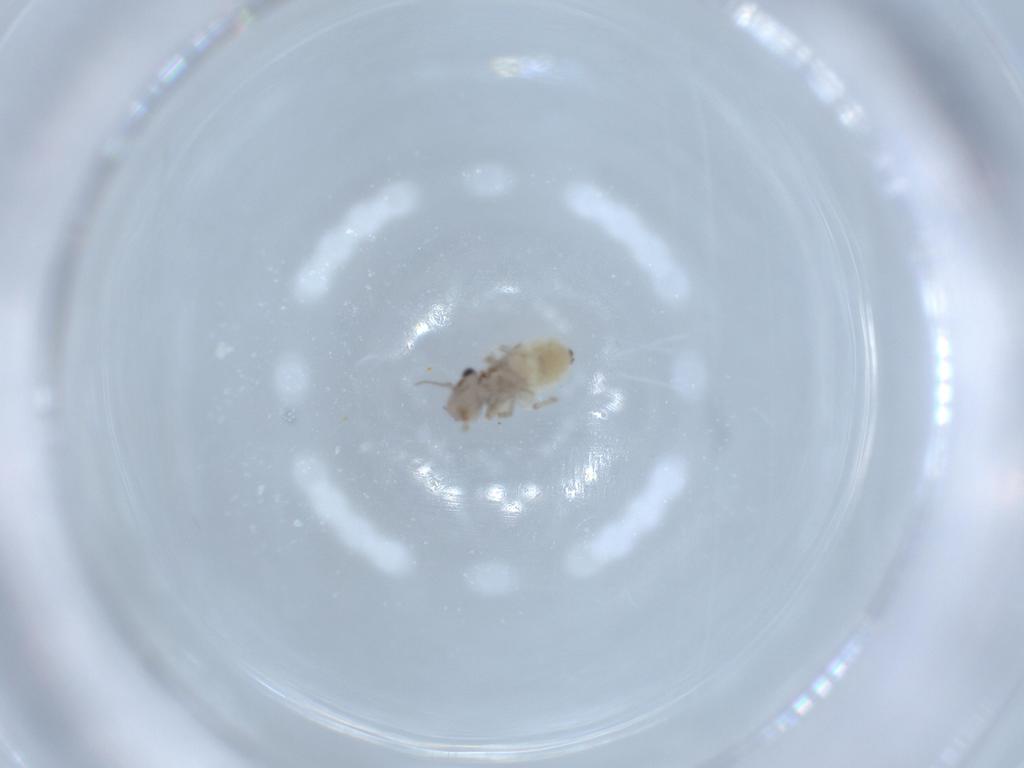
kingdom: Animalia
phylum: Arthropoda
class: Insecta
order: Psocodea
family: Lepidopsocidae
